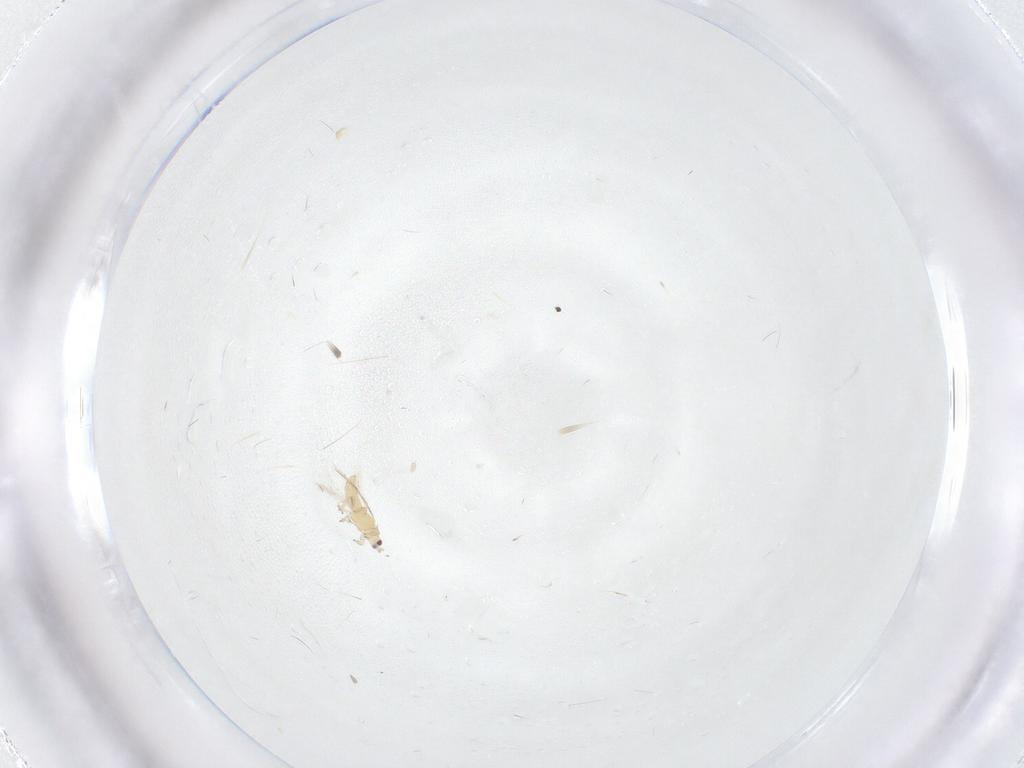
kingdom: Animalia
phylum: Arthropoda
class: Insecta
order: Thysanoptera
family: Thripidae
